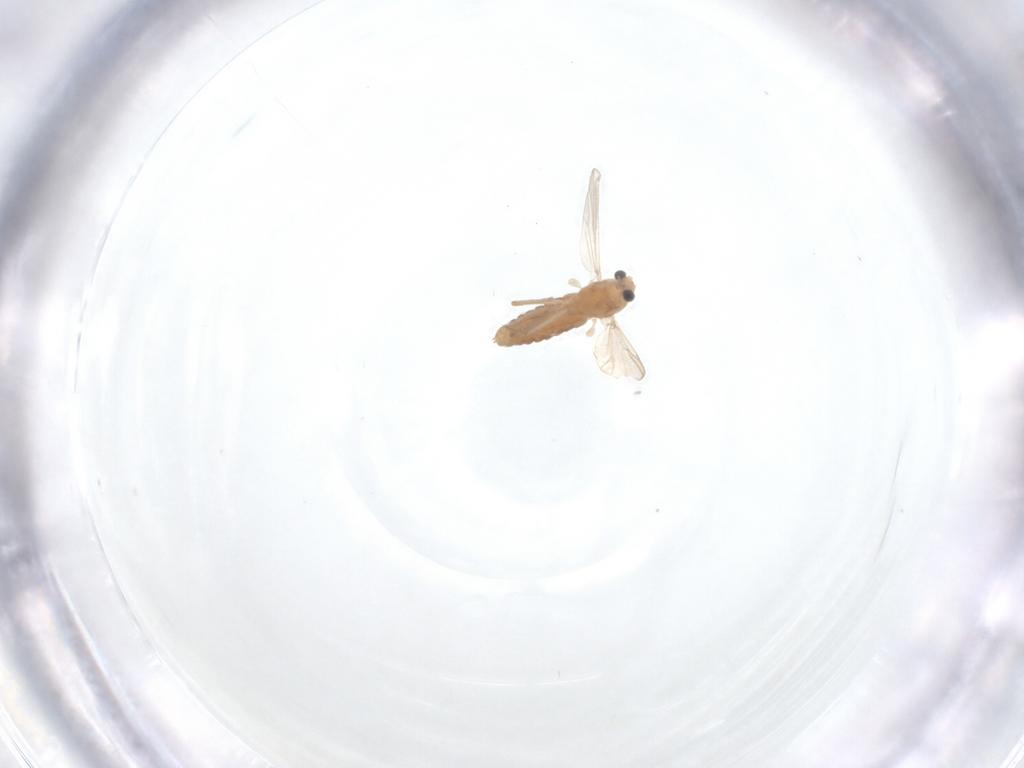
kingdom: Animalia
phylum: Arthropoda
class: Insecta
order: Diptera
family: Chironomidae
